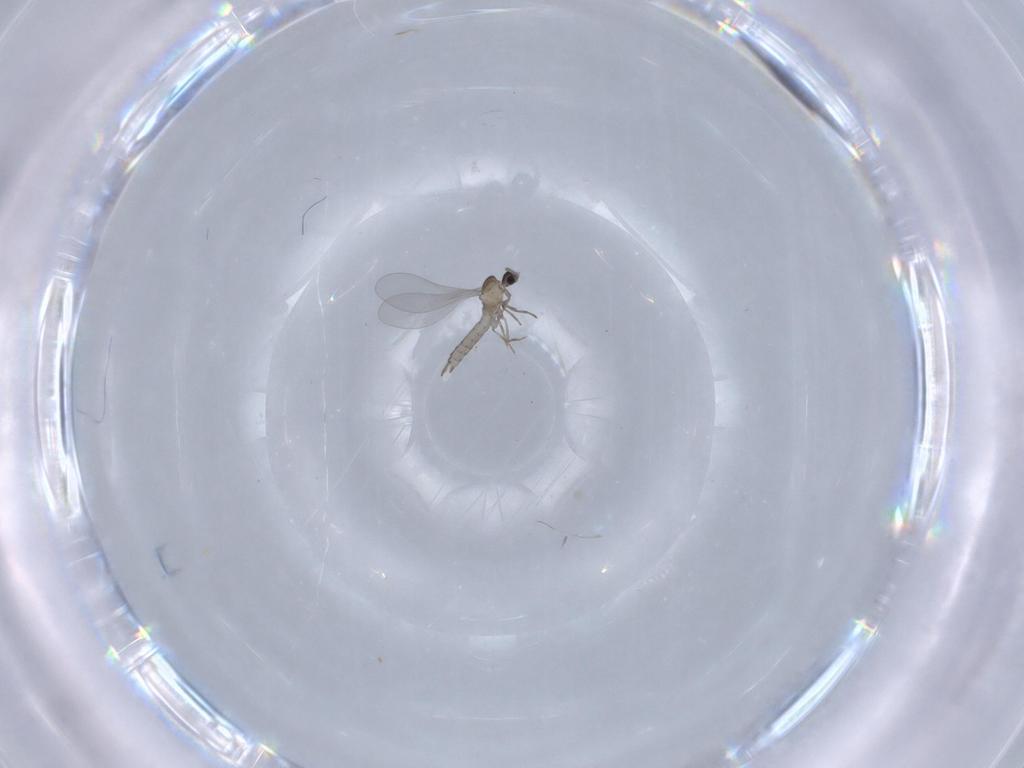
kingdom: Animalia
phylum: Arthropoda
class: Insecta
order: Diptera
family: Cecidomyiidae
